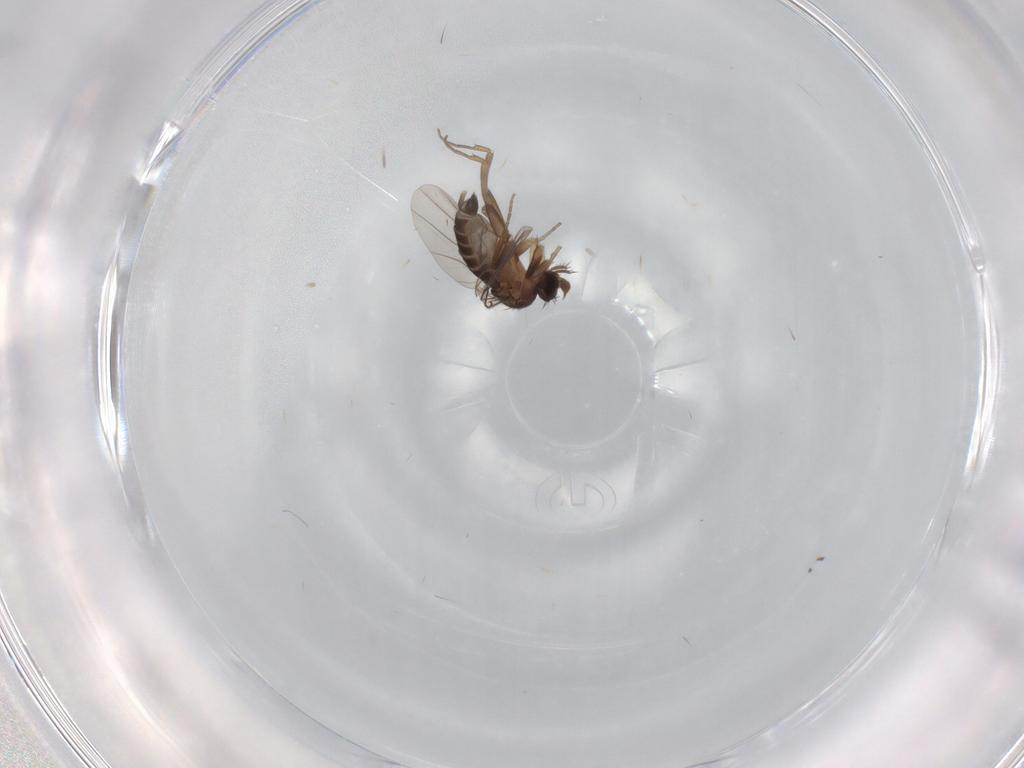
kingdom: Animalia
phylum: Arthropoda
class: Insecta
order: Diptera
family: Phoridae
